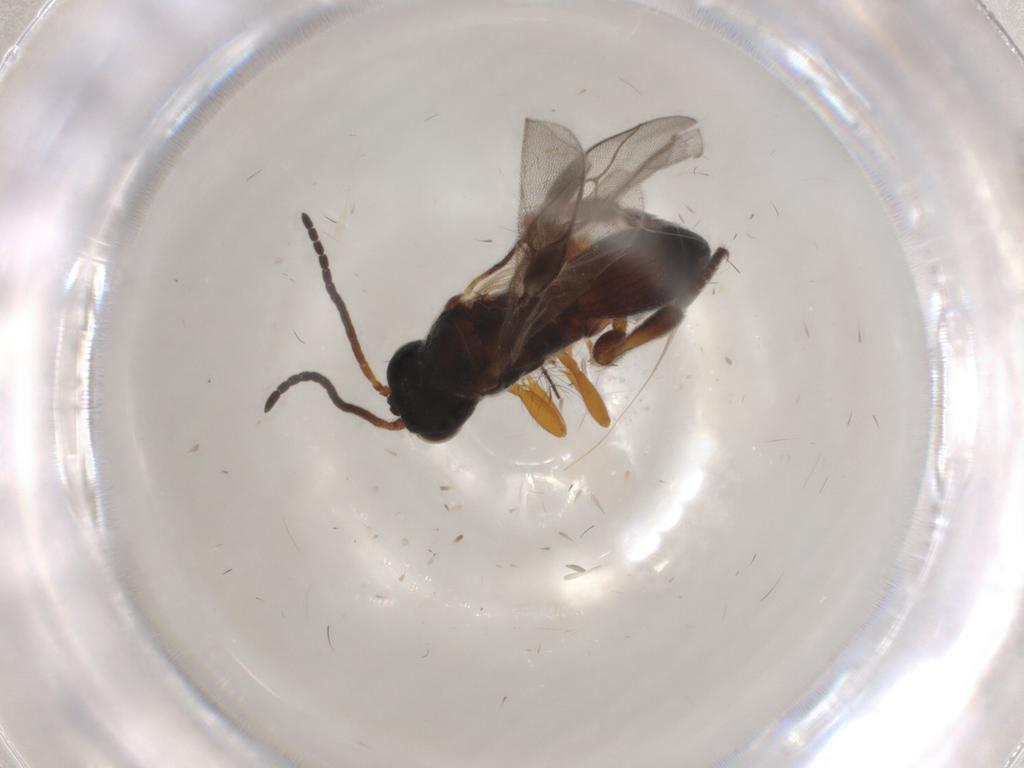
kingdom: Animalia
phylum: Arthropoda
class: Insecta
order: Hymenoptera
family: Braconidae
